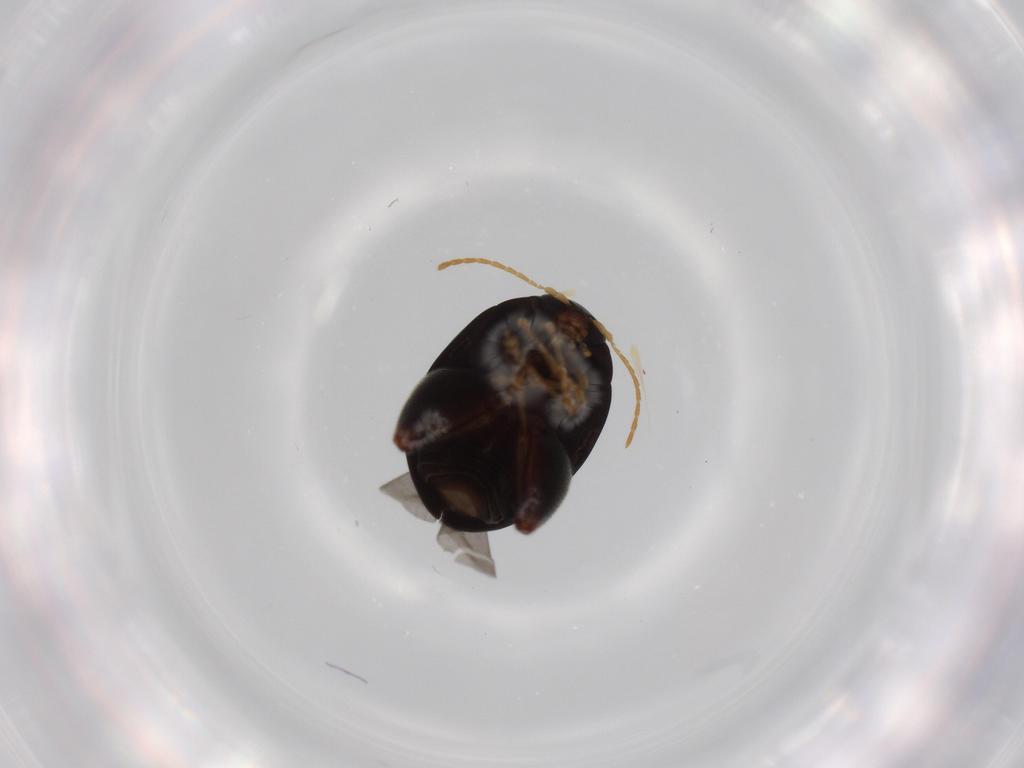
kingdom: Animalia
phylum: Arthropoda
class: Insecta
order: Coleoptera
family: Chrysomelidae
